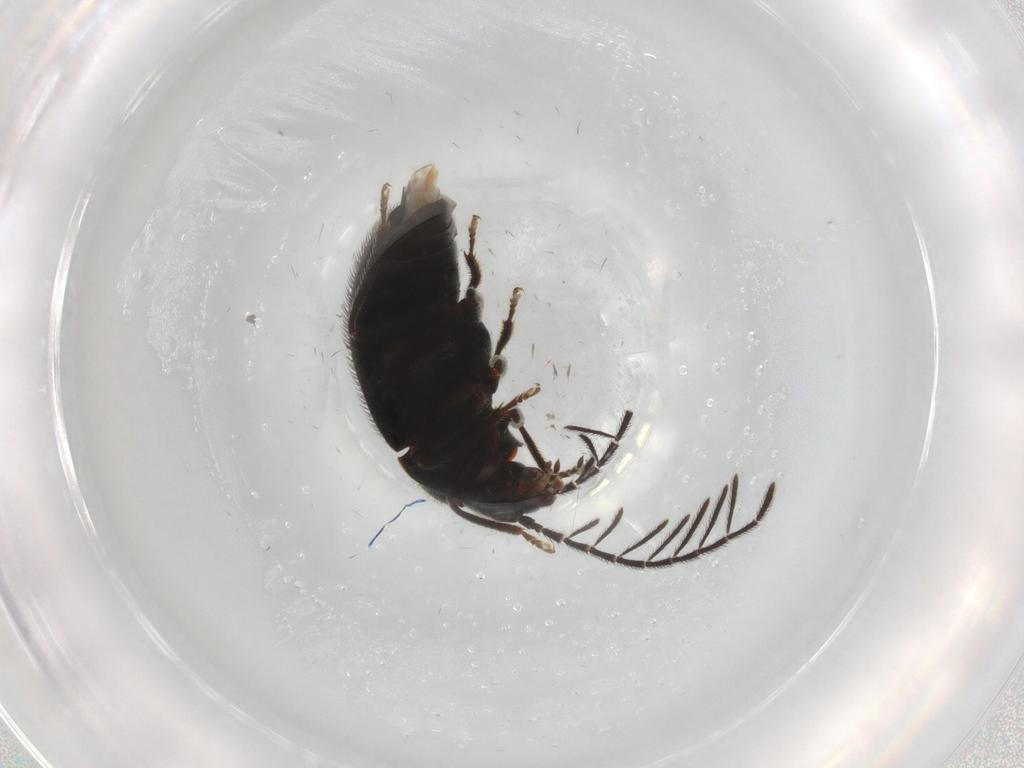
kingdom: Animalia
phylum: Arthropoda
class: Insecta
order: Coleoptera
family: Ptilodactylidae
